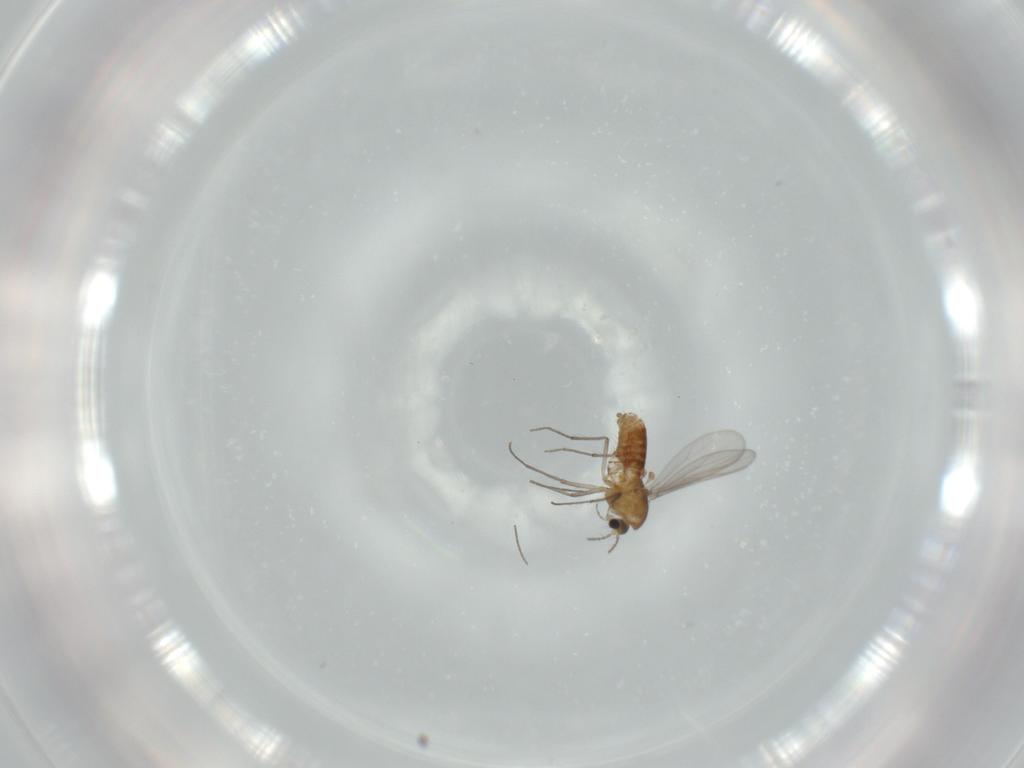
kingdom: Animalia
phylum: Arthropoda
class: Insecta
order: Diptera
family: Chironomidae
